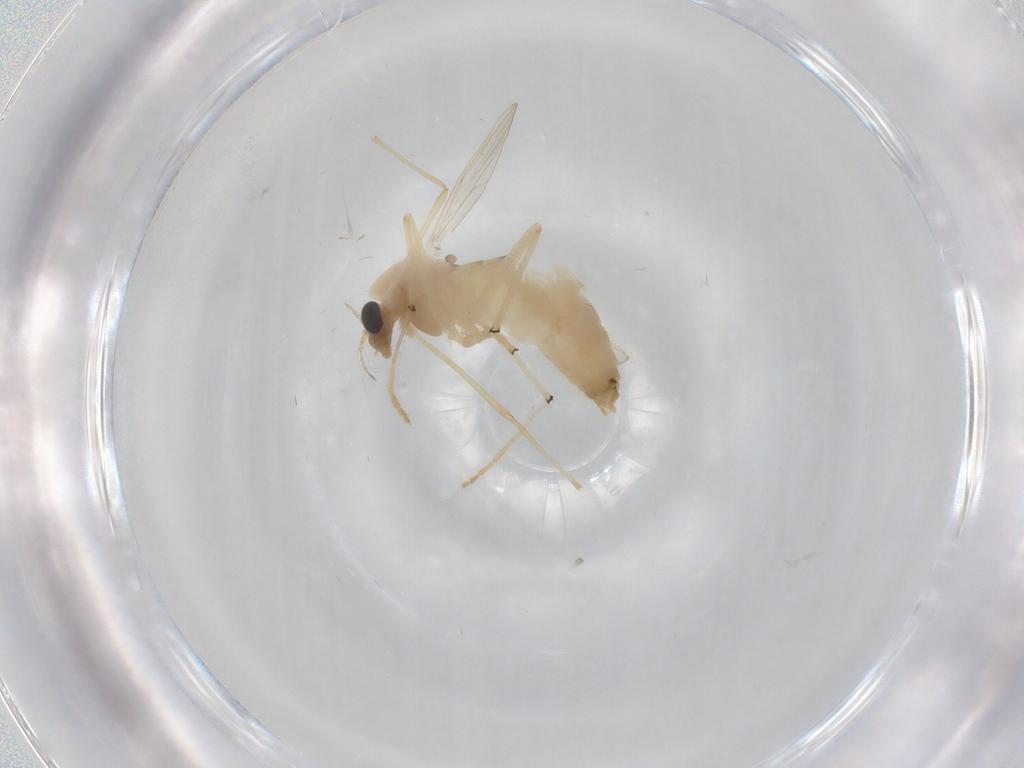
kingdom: Animalia
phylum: Arthropoda
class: Insecta
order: Diptera
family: Chironomidae
